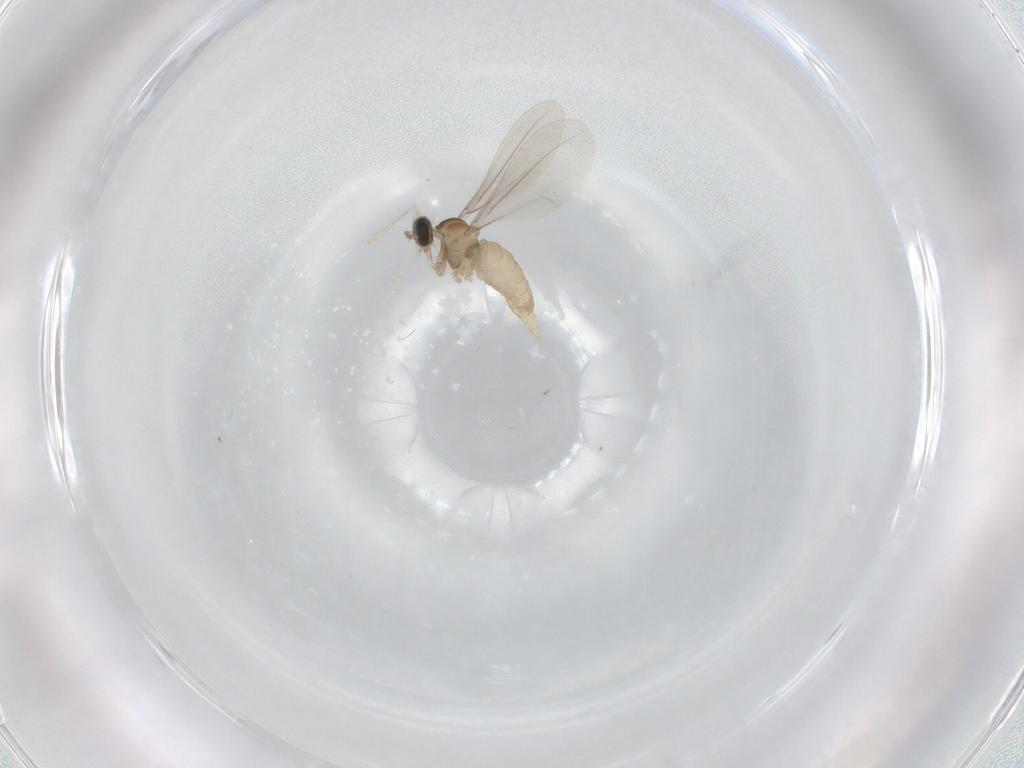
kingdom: Animalia
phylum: Arthropoda
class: Insecta
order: Diptera
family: Cecidomyiidae
